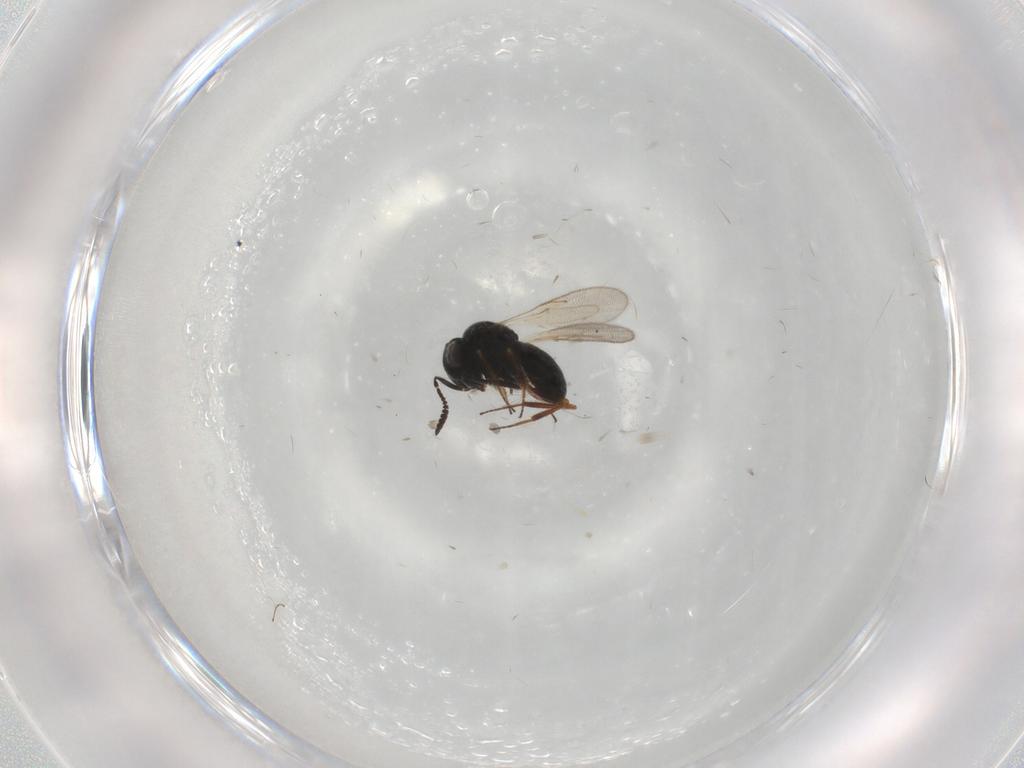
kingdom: Animalia
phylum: Arthropoda
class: Insecta
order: Hymenoptera
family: Scelionidae
